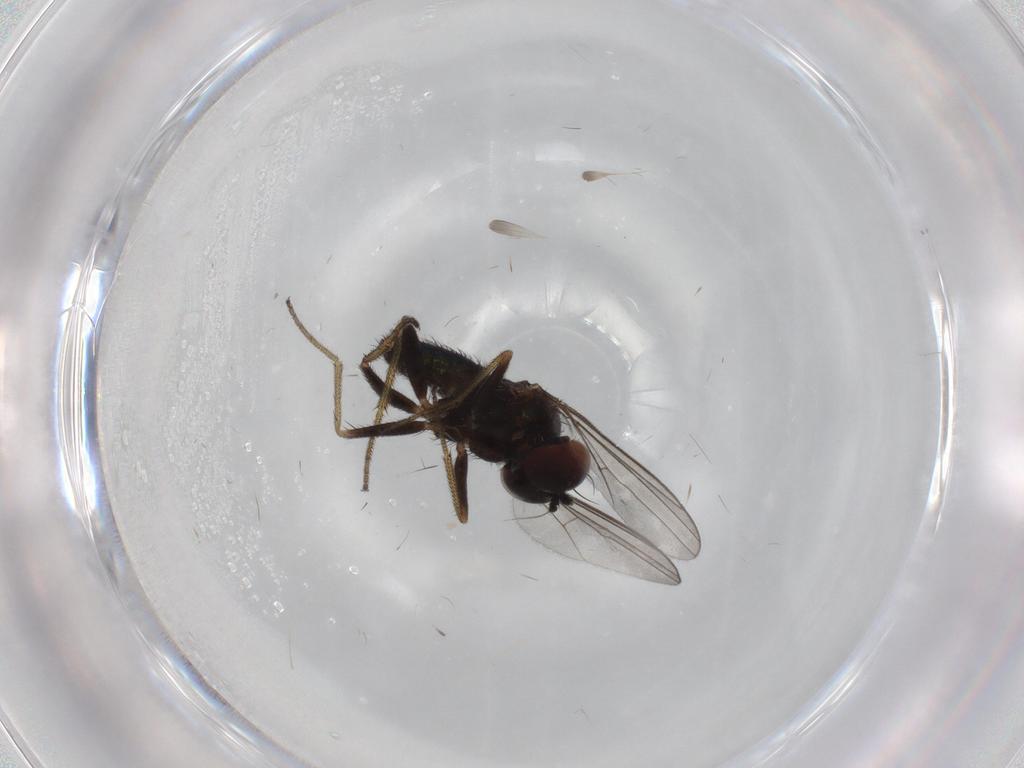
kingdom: Animalia
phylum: Arthropoda
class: Insecta
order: Diptera
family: Dolichopodidae
